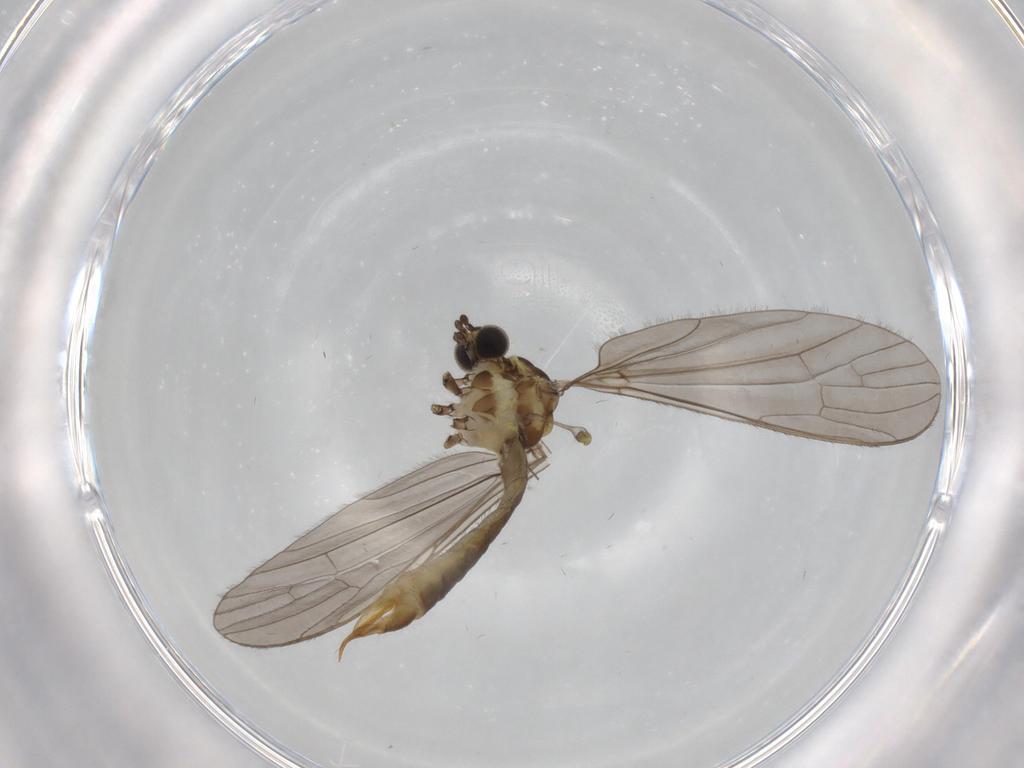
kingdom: Animalia
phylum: Arthropoda
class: Insecta
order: Diptera
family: Limoniidae
